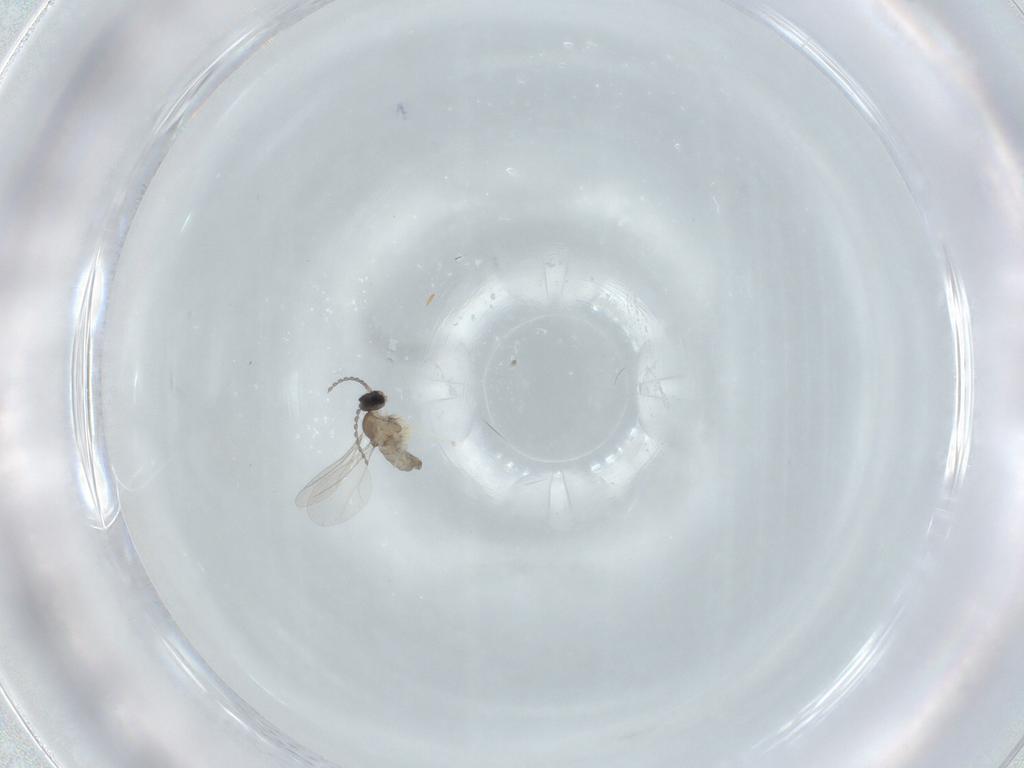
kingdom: Animalia
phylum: Arthropoda
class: Insecta
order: Diptera
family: Cecidomyiidae
